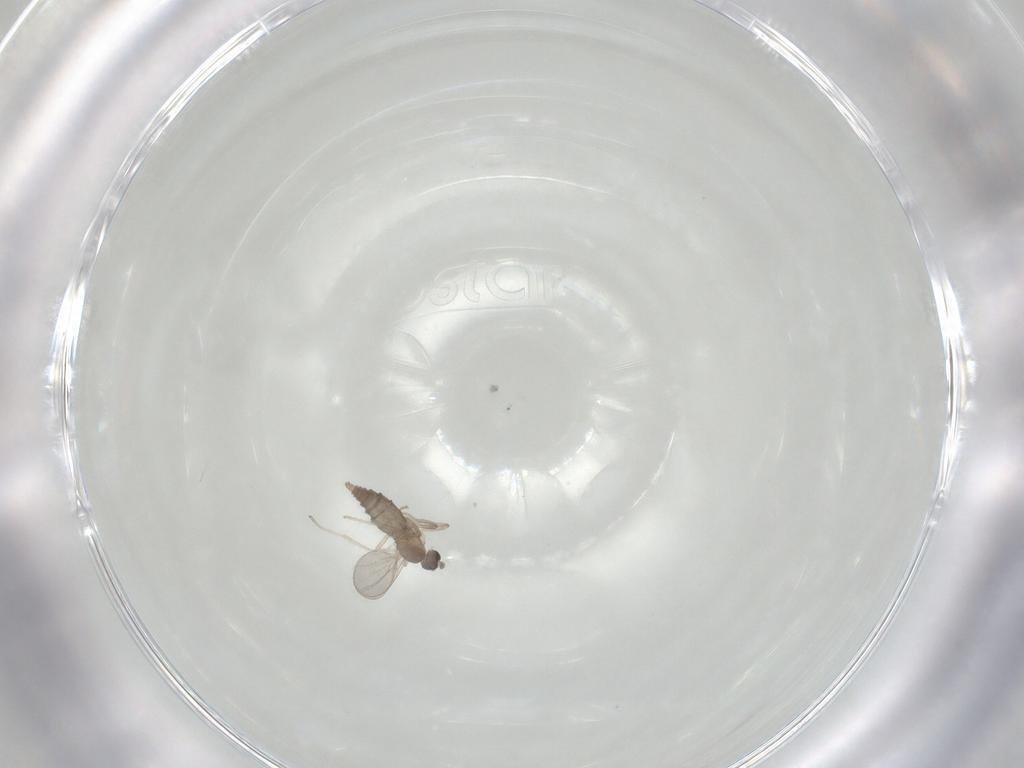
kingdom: Animalia
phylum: Arthropoda
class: Insecta
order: Diptera
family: Cecidomyiidae
